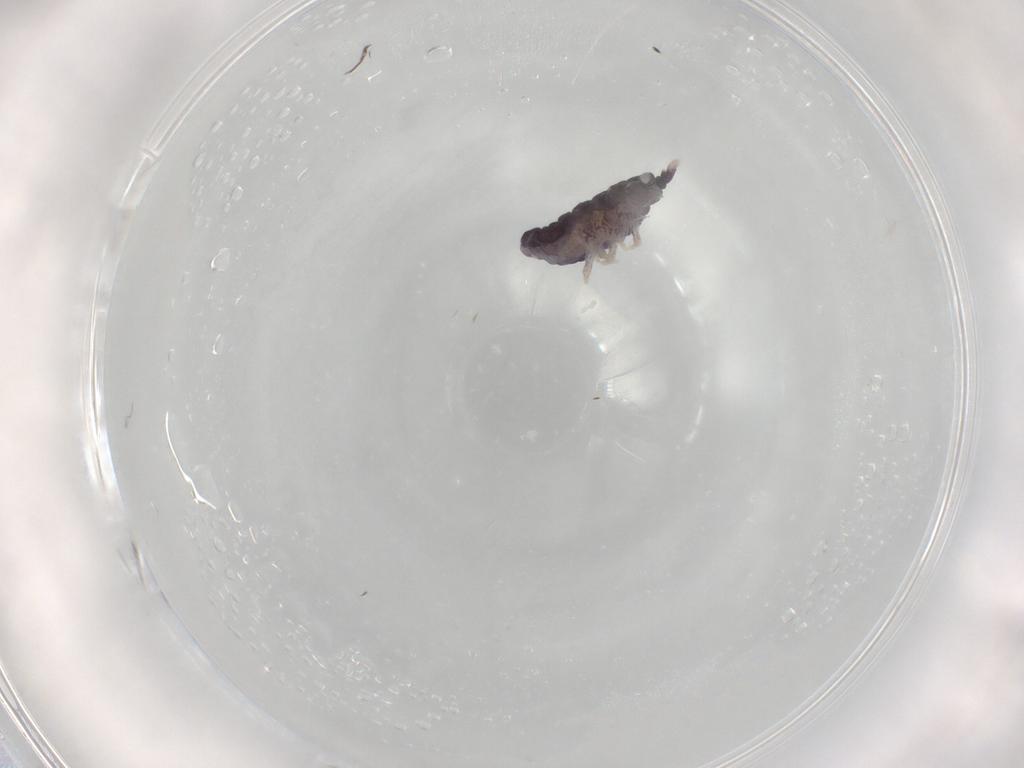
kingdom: Animalia
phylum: Arthropoda
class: Collembola
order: Poduromorpha
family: Neanuridae
